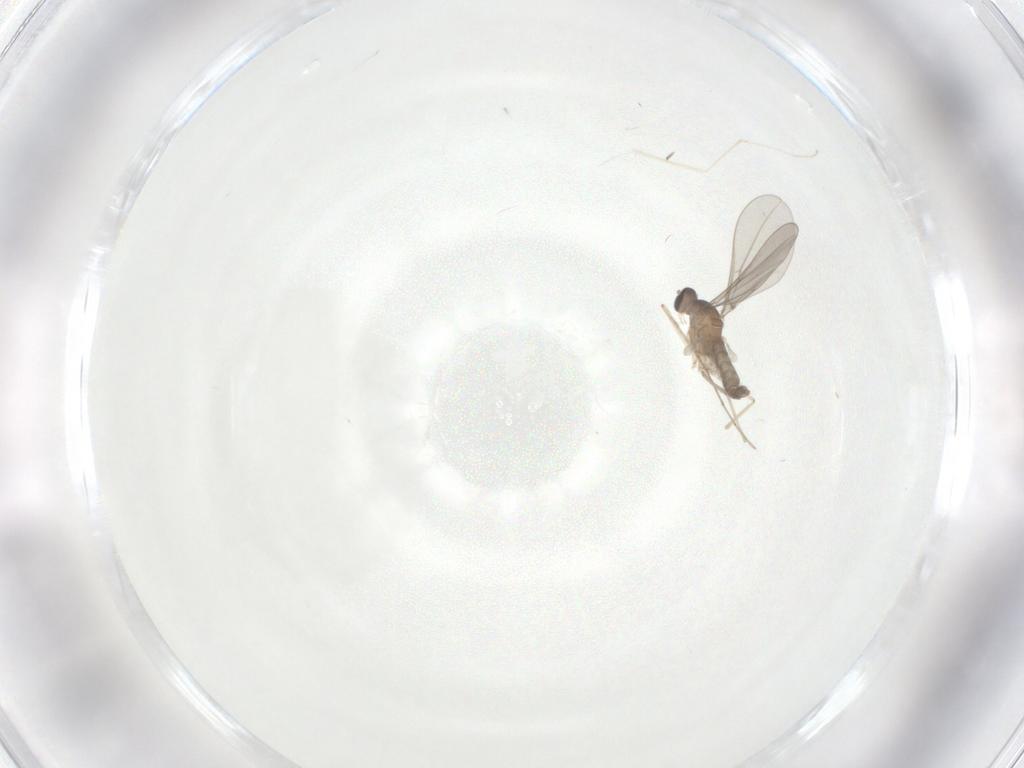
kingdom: Animalia
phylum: Arthropoda
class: Insecta
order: Diptera
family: Cecidomyiidae
